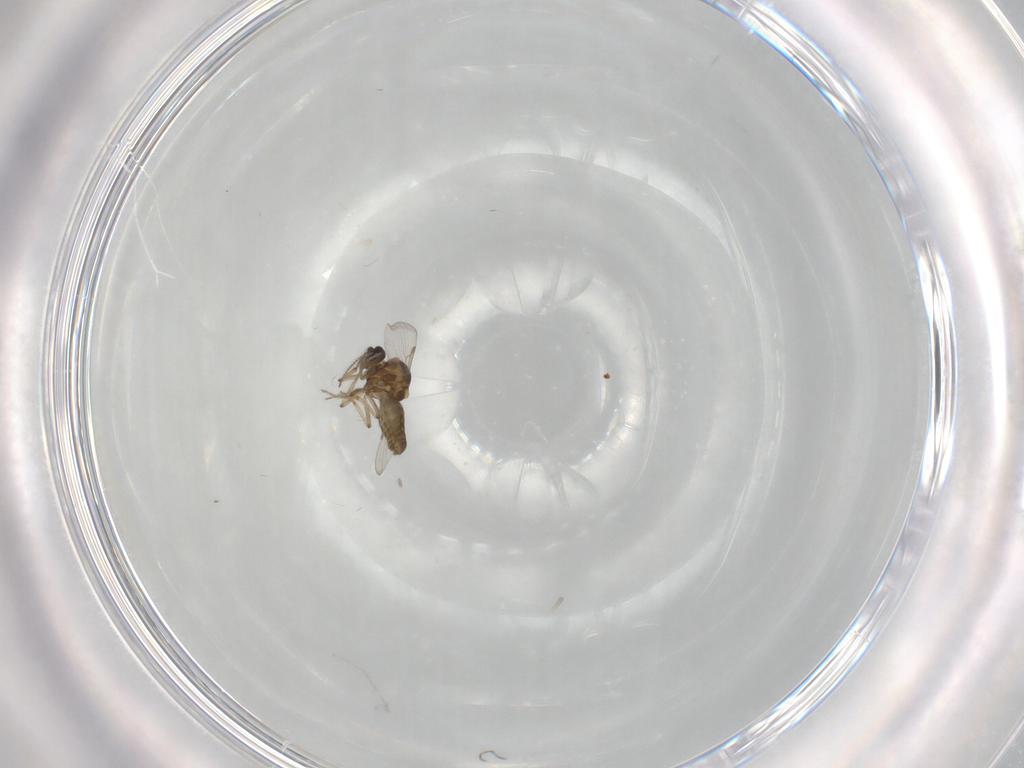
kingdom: Animalia
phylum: Arthropoda
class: Insecta
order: Diptera
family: Ceratopogonidae
